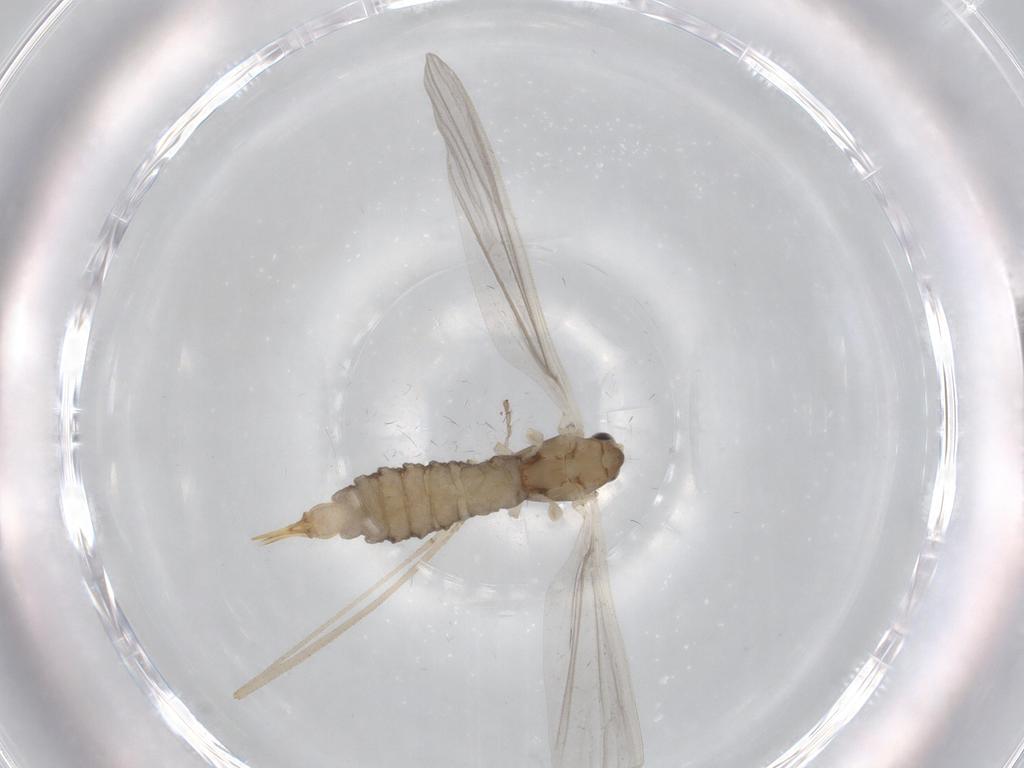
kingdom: Animalia
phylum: Arthropoda
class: Insecta
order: Diptera
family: Limoniidae
